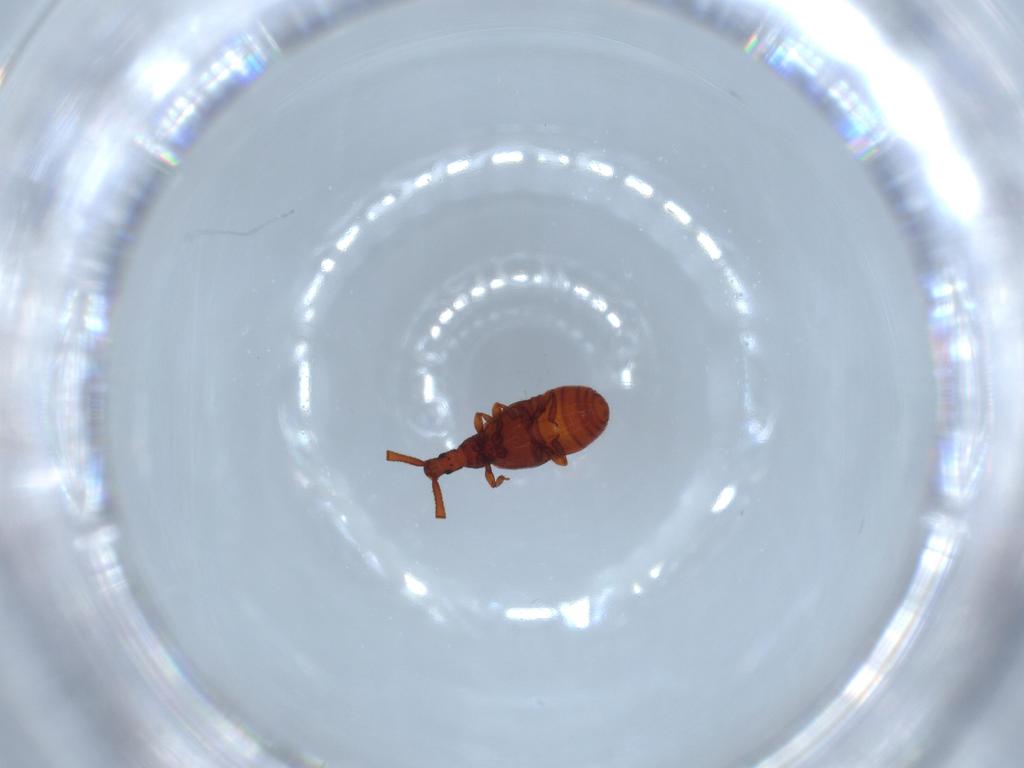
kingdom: Animalia
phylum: Arthropoda
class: Insecta
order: Coleoptera
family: Staphylinidae
